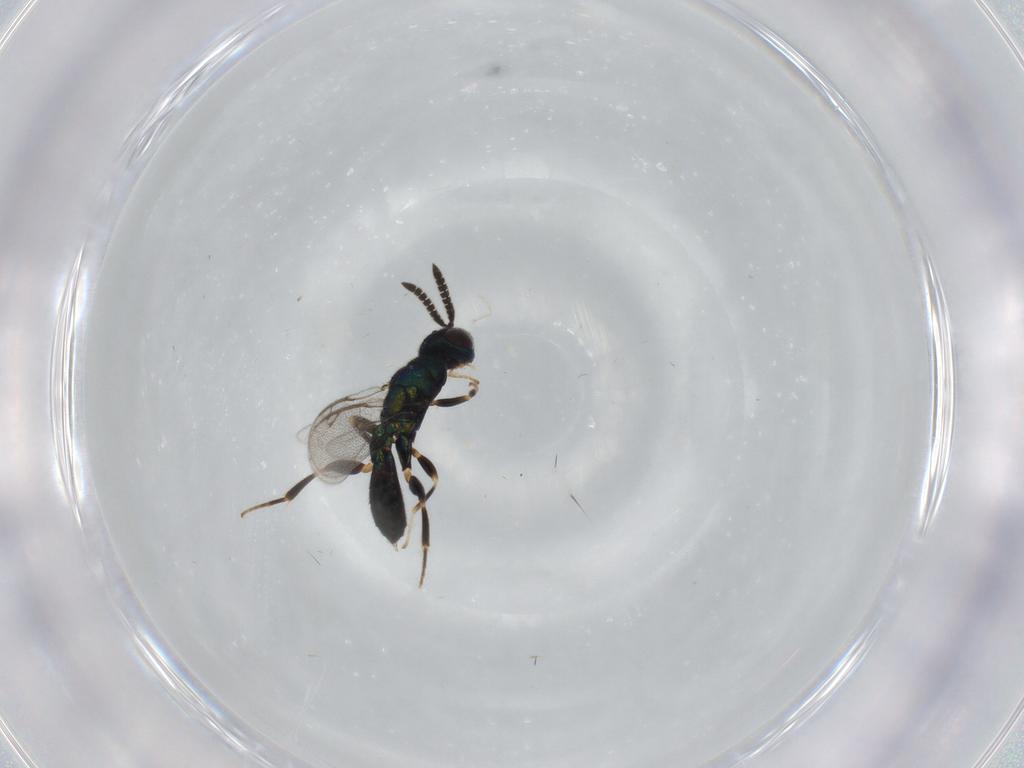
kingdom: Animalia
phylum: Arthropoda
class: Insecta
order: Hymenoptera
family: Cleonyminae
